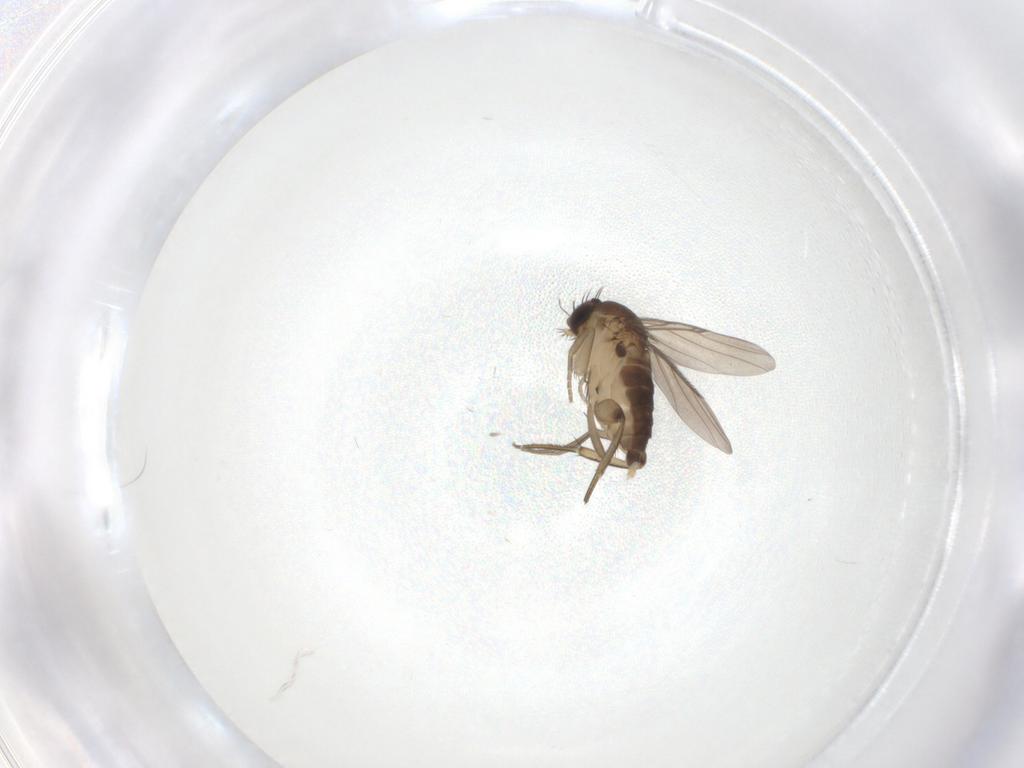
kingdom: Animalia
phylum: Arthropoda
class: Insecta
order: Diptera
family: Phoridae
